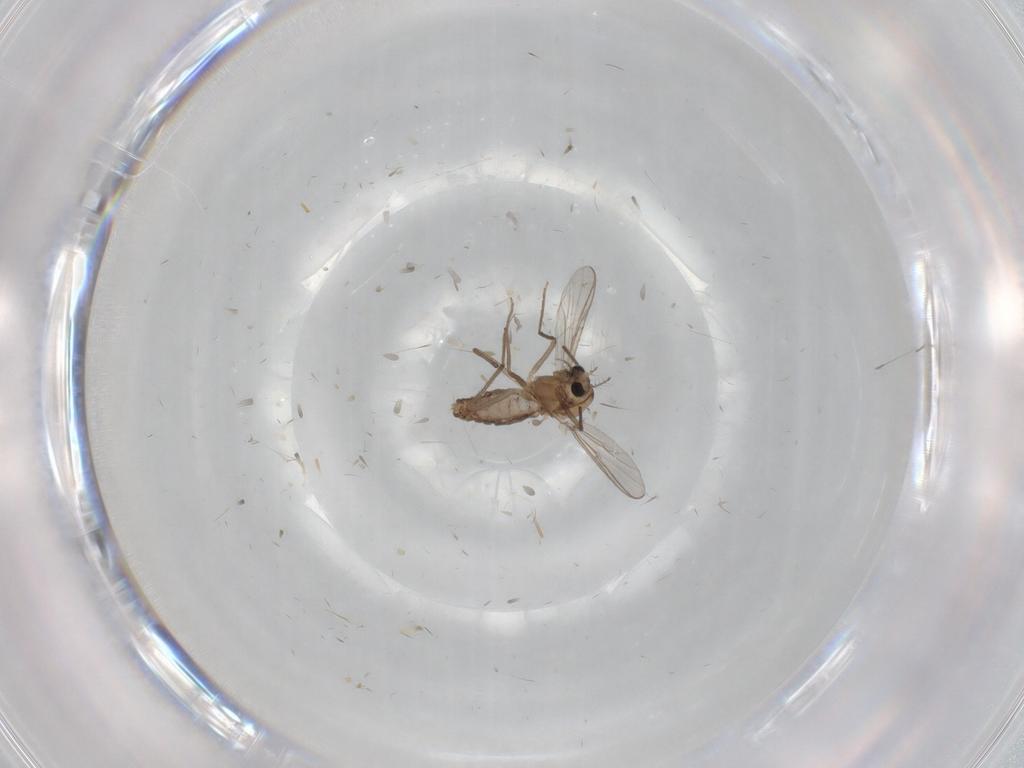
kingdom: Animalia
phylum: Arthropoda
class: Insecta
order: Diptera
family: Chironomidae
